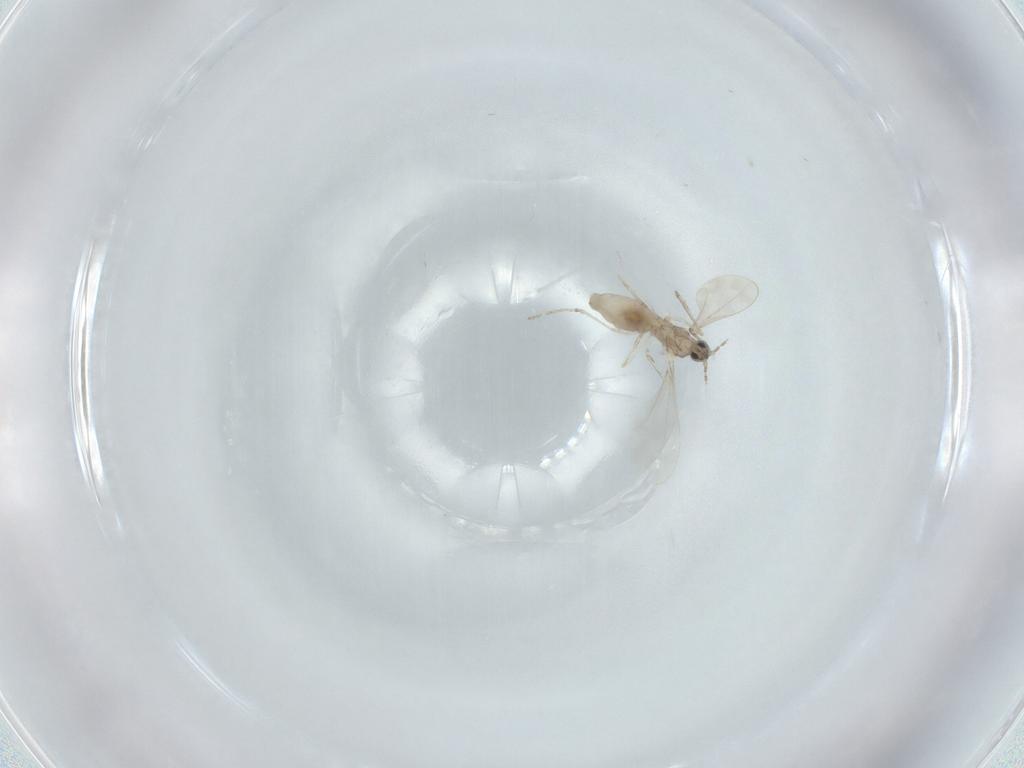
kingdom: Animalia
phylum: Arthropoda
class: Insecta
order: Diptera
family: Cecidomyiidae
